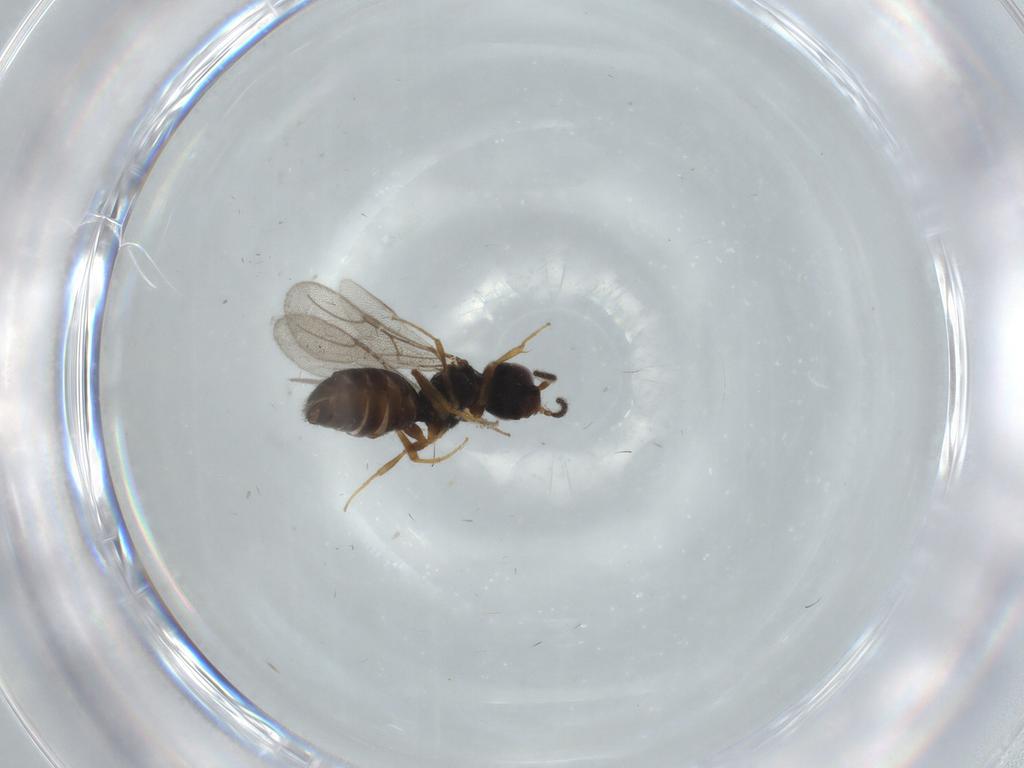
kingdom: Animalia
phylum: Arthropoda
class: Insecta
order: Hymenoptera
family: Bethylidae
